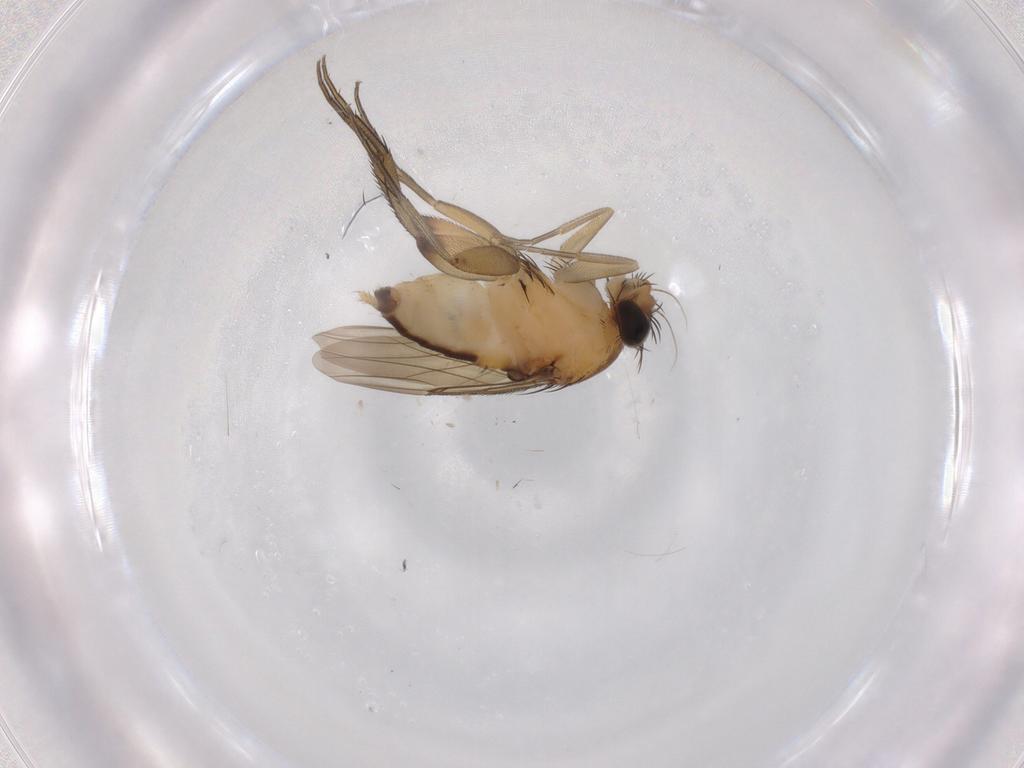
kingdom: Animalia
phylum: Arthropoda
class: Insecta
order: Diptera
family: Phoridae
